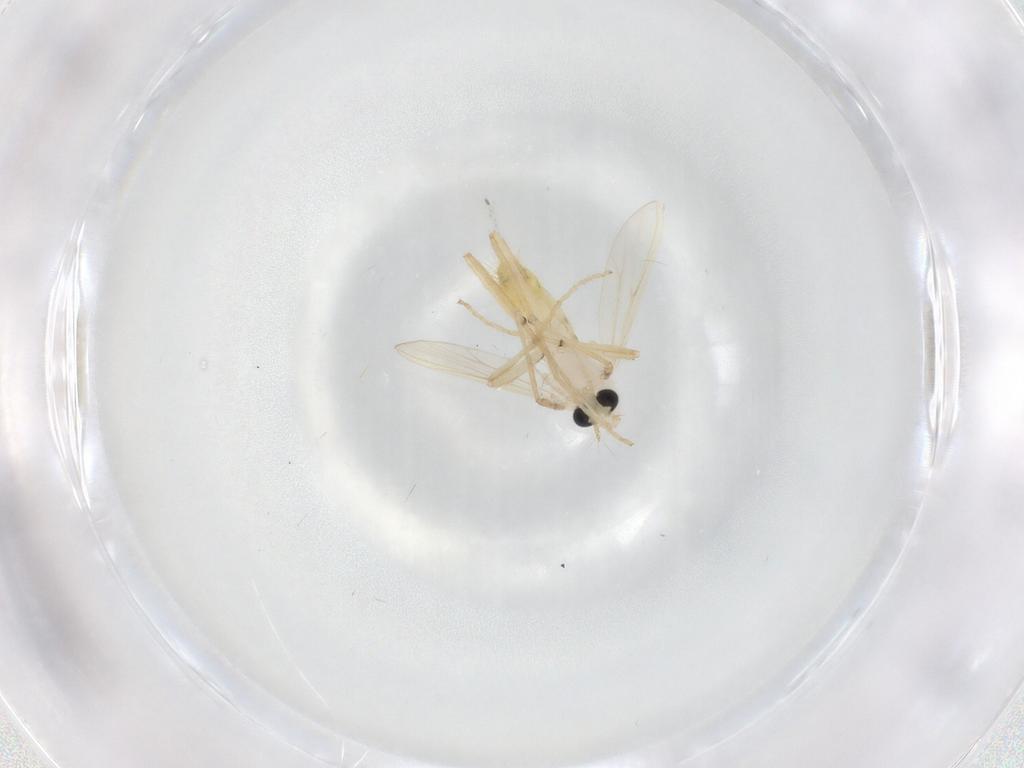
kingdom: Animalia
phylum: Arthropoda
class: Insecta
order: Diptera
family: Chironomidae
